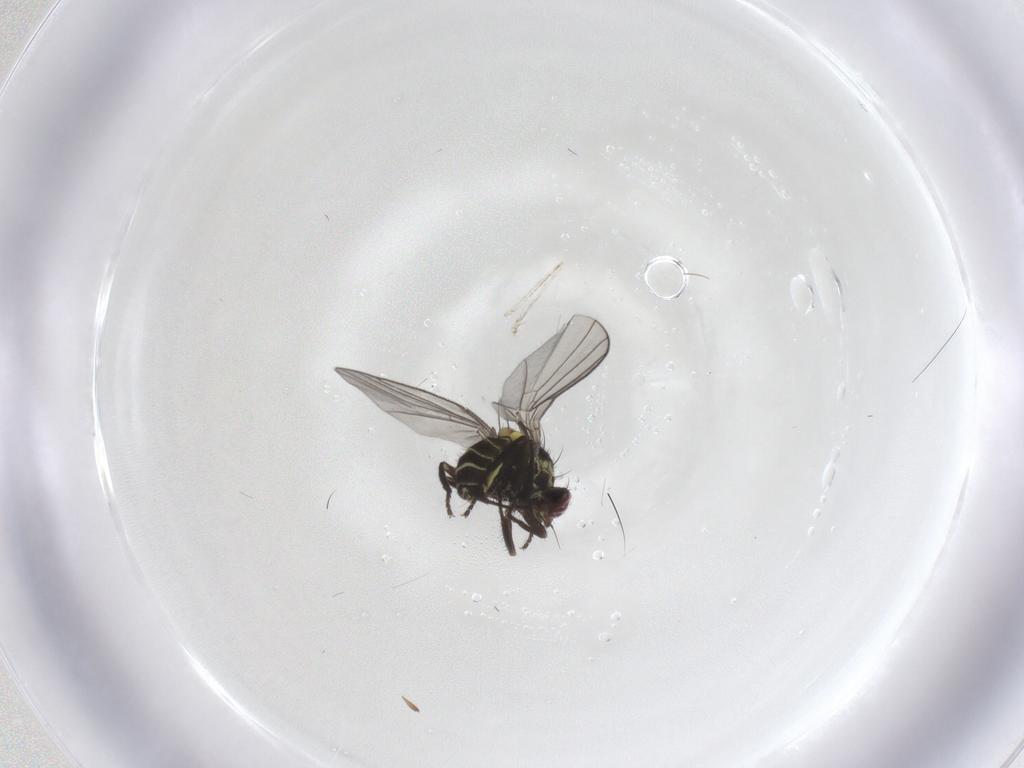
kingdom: Animalia
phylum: Arthropoda
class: Insecta
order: Diptera
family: Agromyzidae
